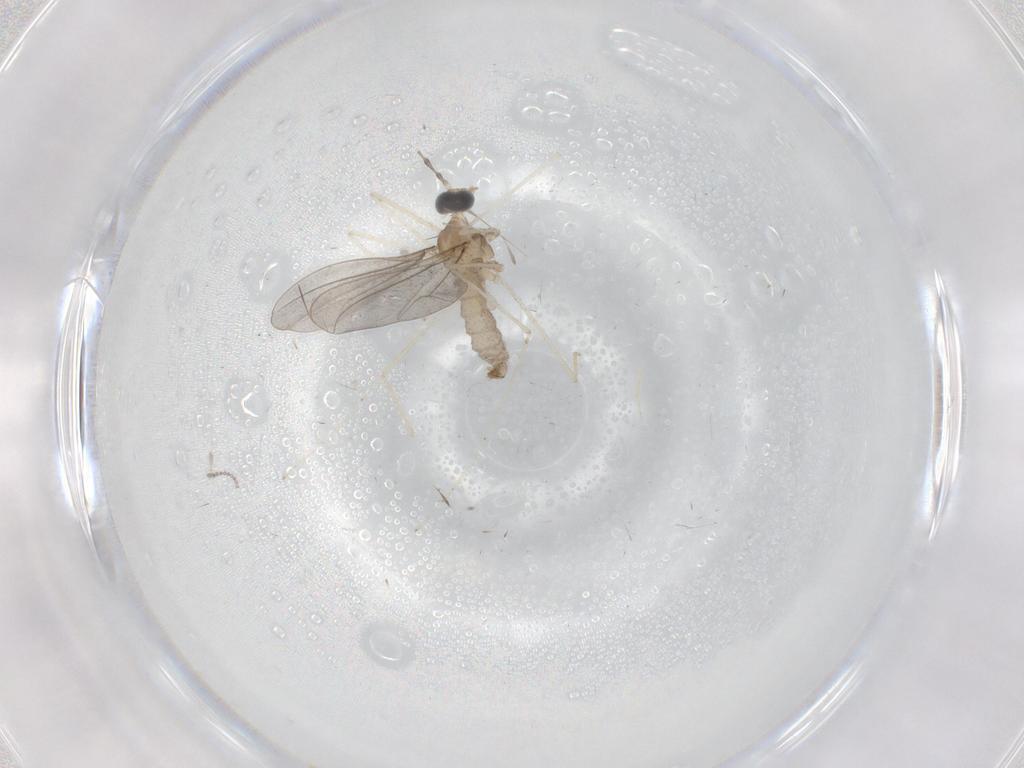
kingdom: Animalia
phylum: Arthropoda
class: Insecta
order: Diptera
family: Cecidomyiidae
